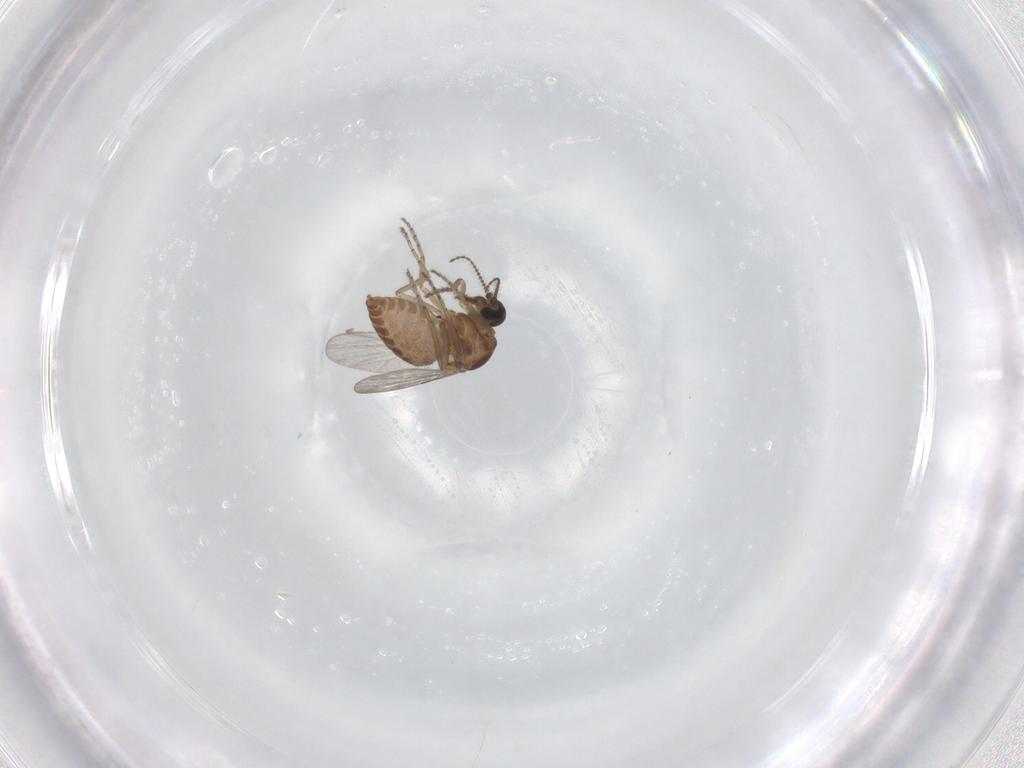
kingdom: Animalia
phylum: Arthropoda
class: Insecta
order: Diptera
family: Ceratopogonidae
